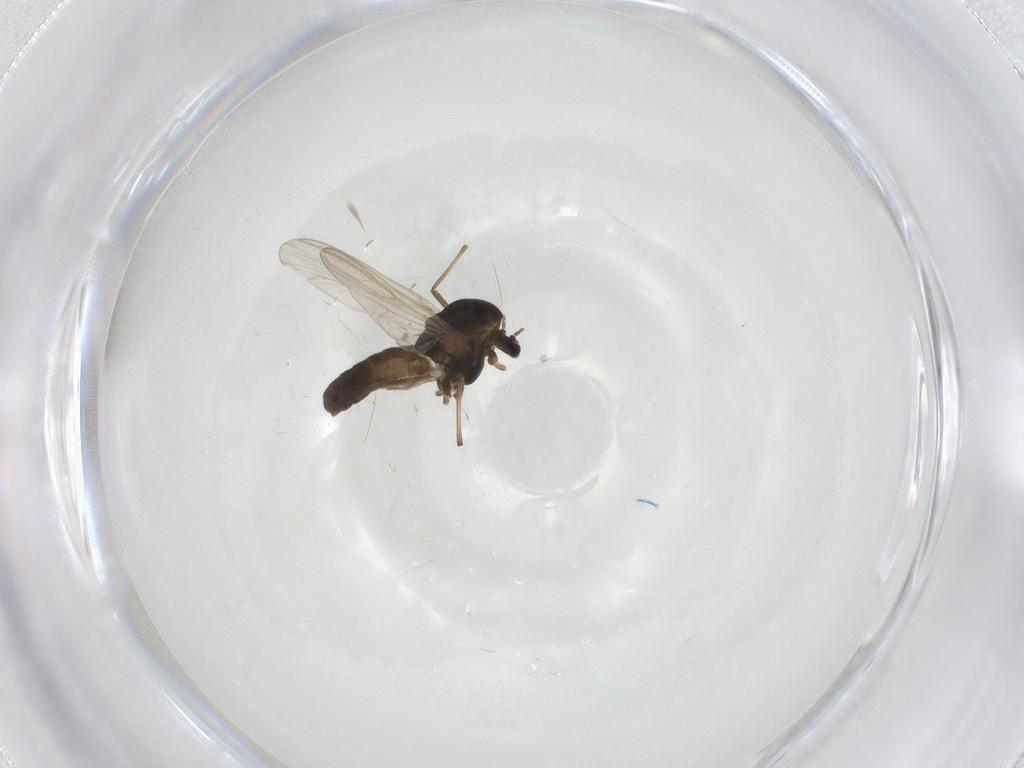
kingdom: Animalia
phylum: Arthropoda
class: Insecta
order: Diptera
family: Chironomidae
